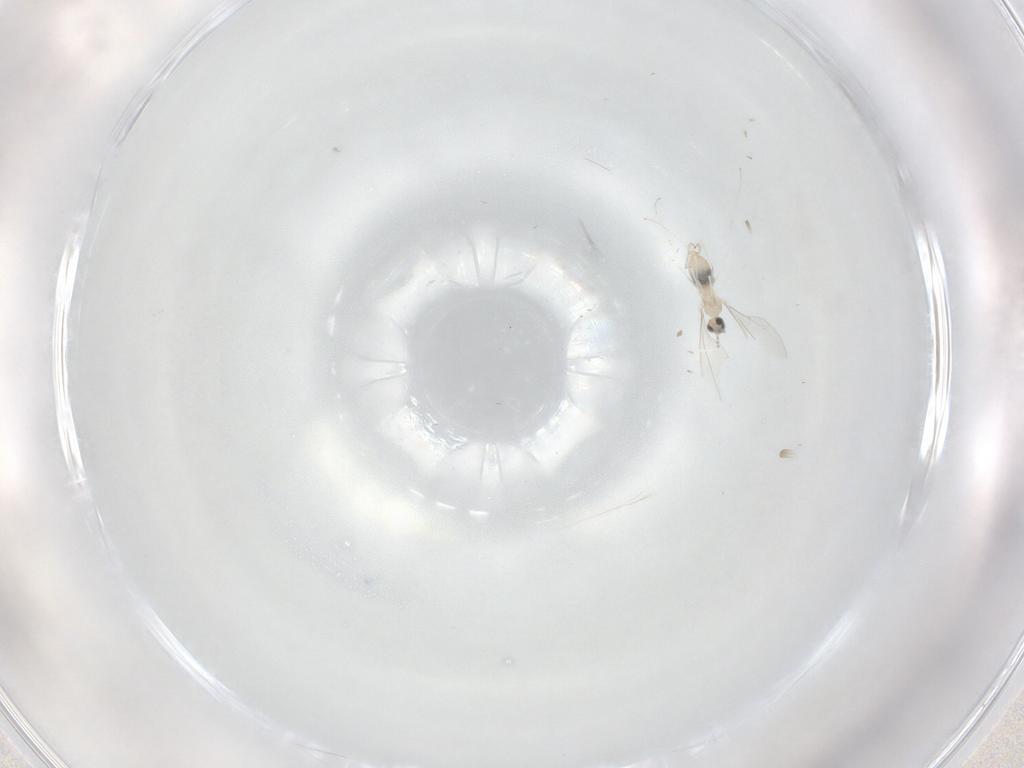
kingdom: Animalia
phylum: Arthropoda
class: Insecta
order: Diptera
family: Cecidomyiidae
